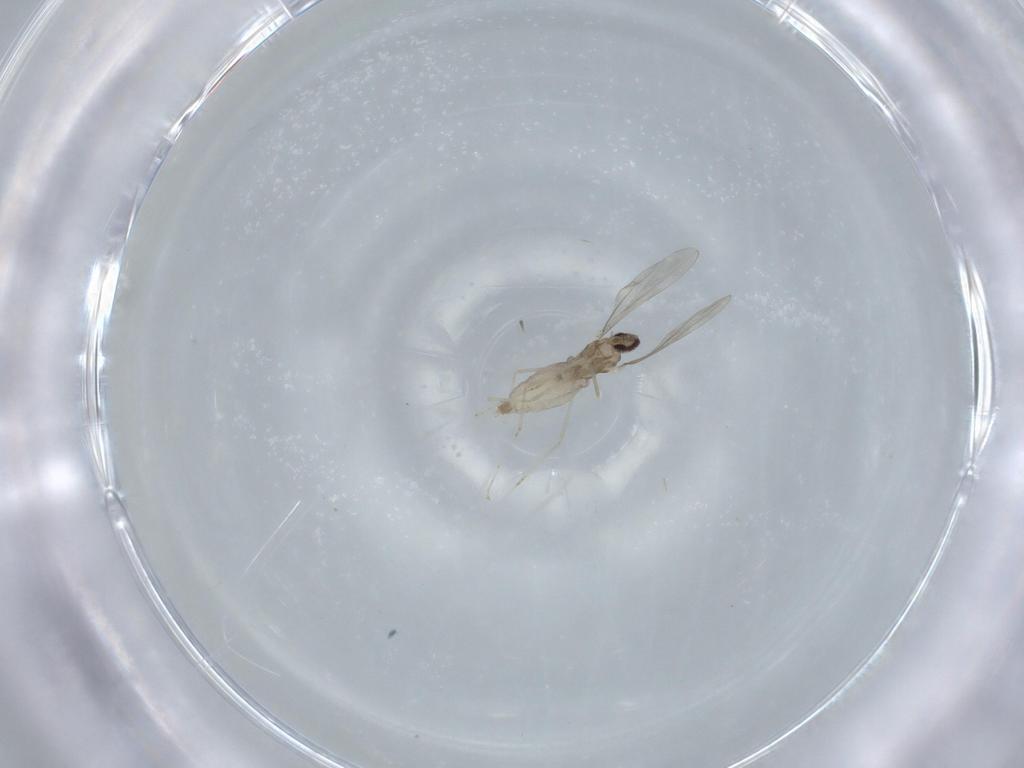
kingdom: Animalia
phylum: Arthropoda
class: Insecta
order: Diptera
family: Cecidomyiidae
